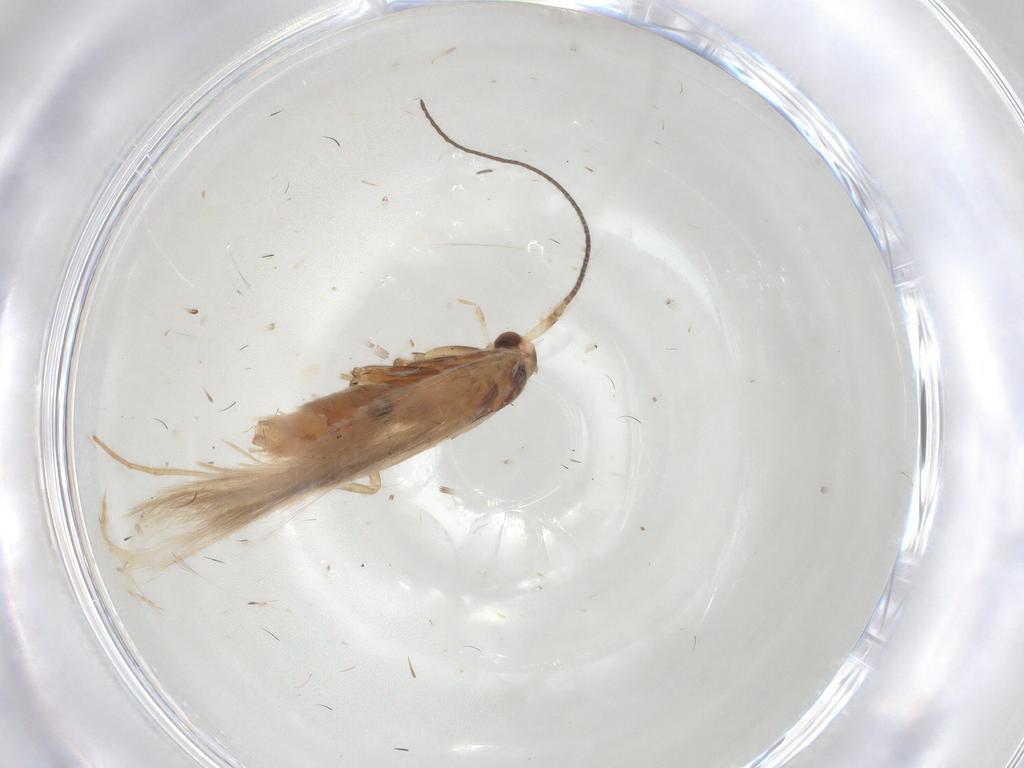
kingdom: Animalia
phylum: Arthropoda
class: Insecta
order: Lepidoptera
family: Coleophoridae
